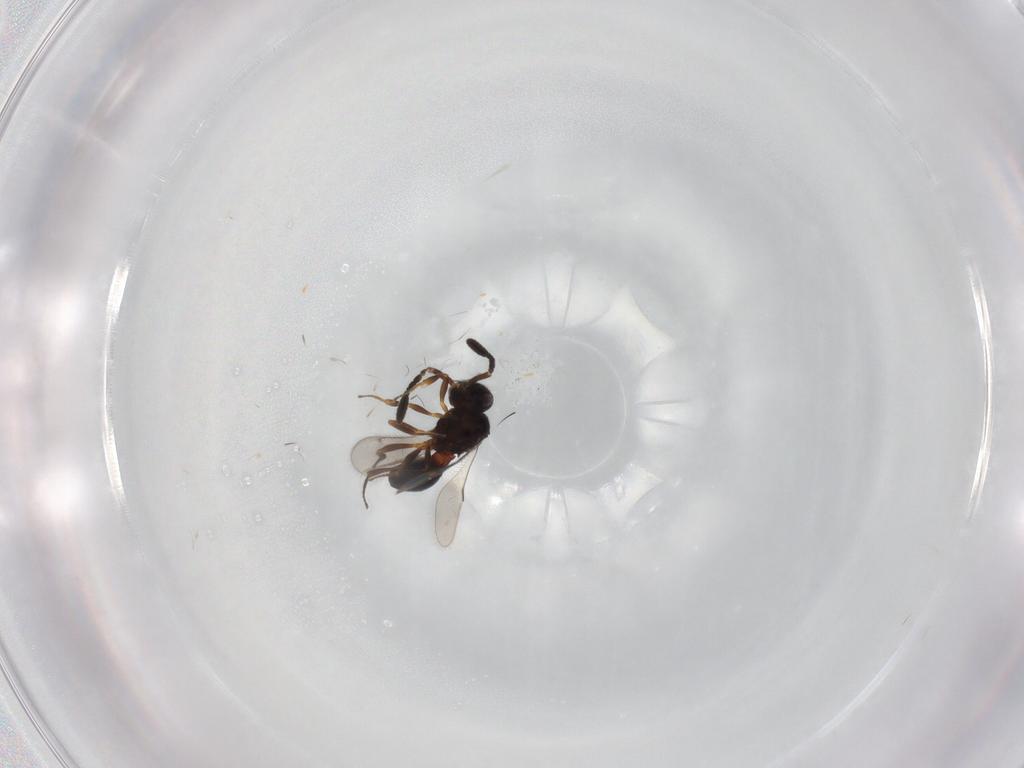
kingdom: Animalia
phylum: Arthropoda
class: Insecta
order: Hymenoptera
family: Scelionidae
